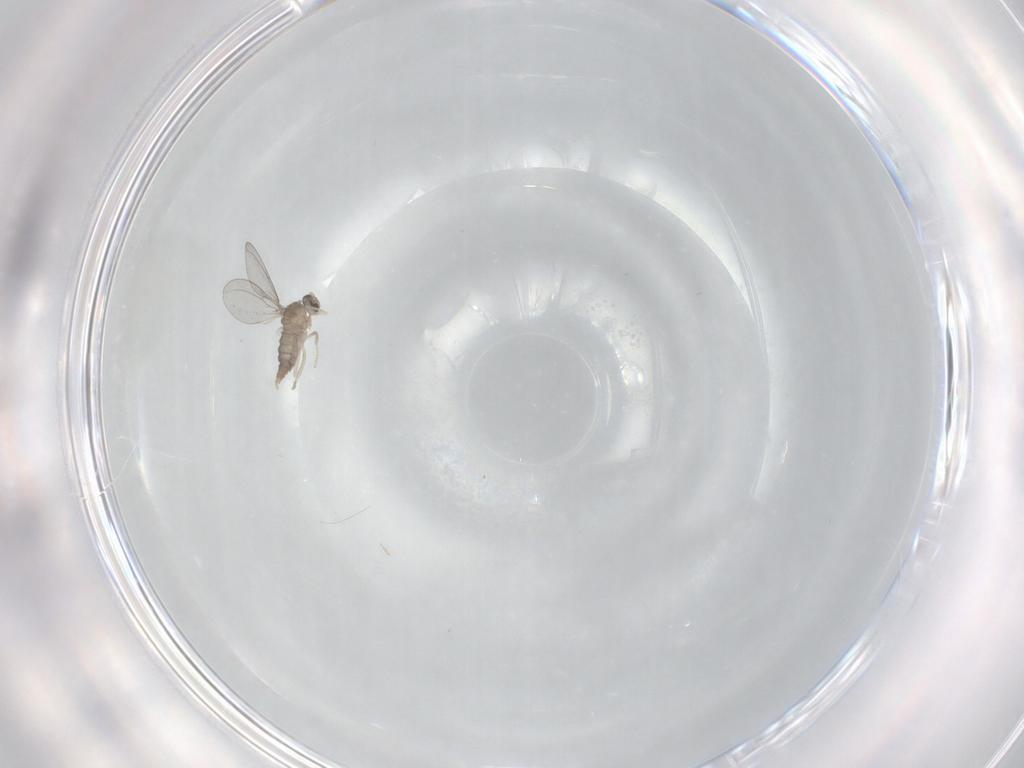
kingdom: Animalia
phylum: Arthropoda
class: Insecta
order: Diptera
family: Cecidomyiidae
